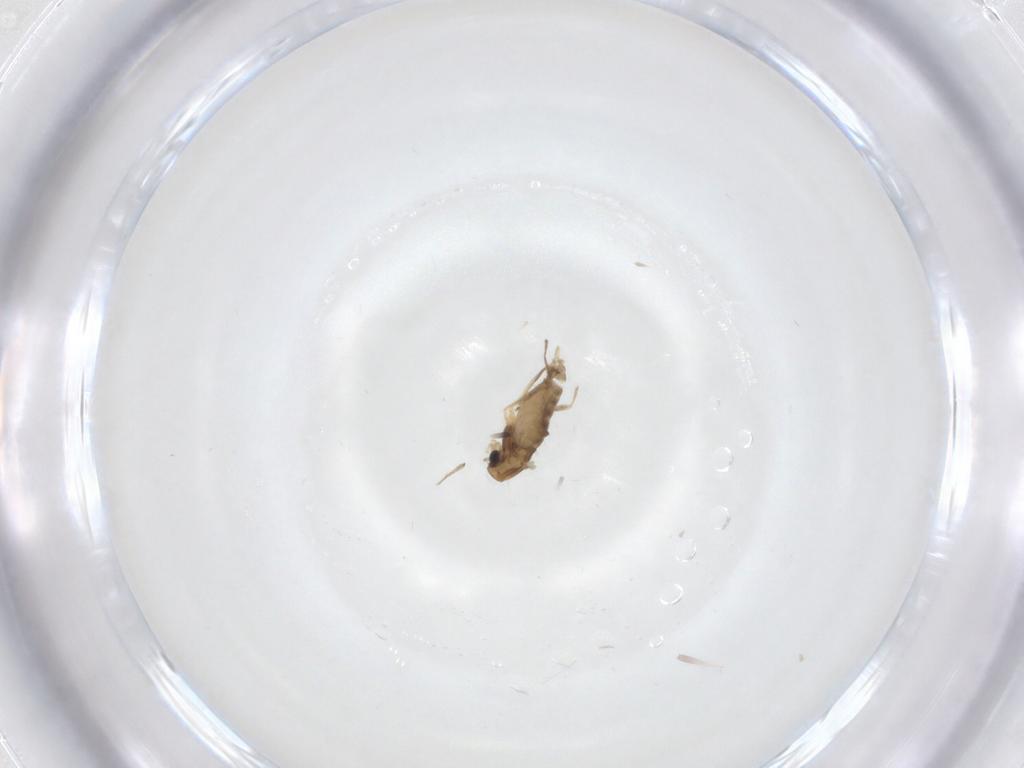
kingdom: Animalia
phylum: Arthropoda
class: Insecta
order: Diptera
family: Chironomidae
